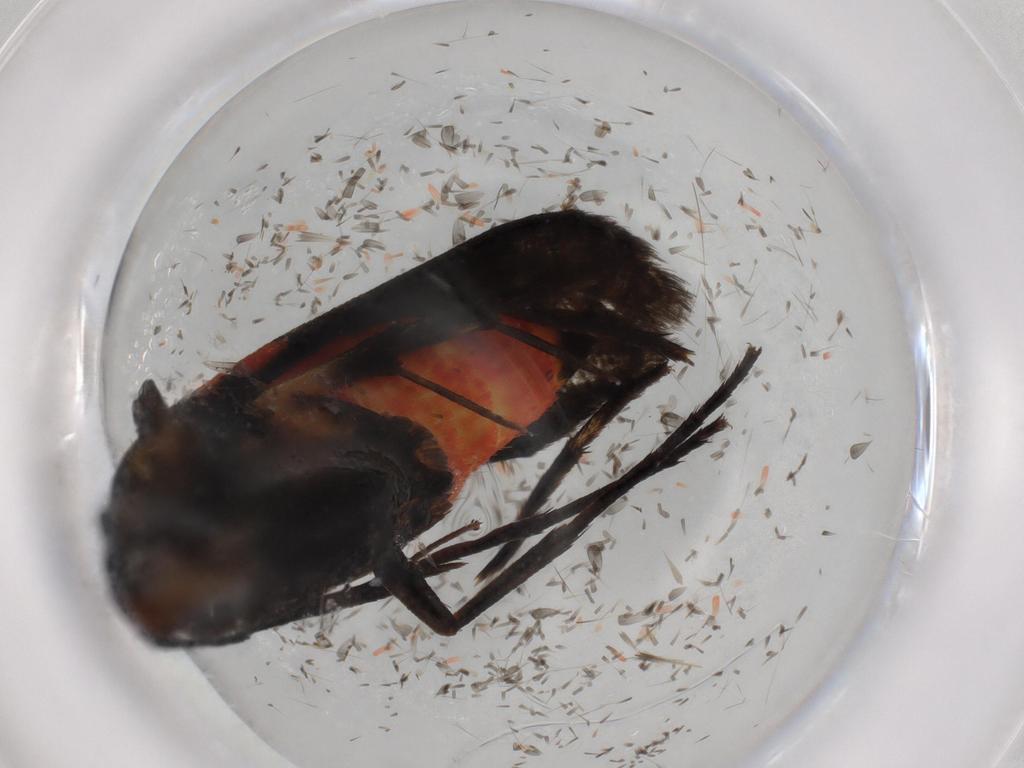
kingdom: Animalia
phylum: Arthropoda
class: Insecta
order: Lepidoptera
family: Yponomeutidae
